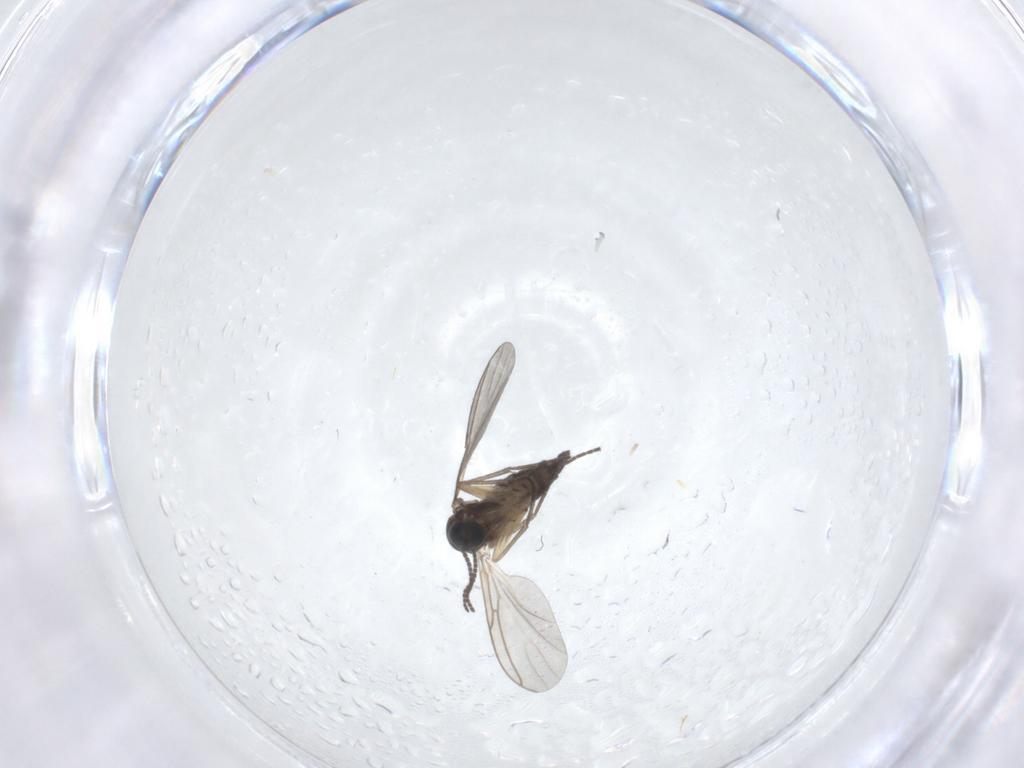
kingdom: Animalia
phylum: Arthropoda
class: Insecta
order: Diptera
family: Sciaridae
